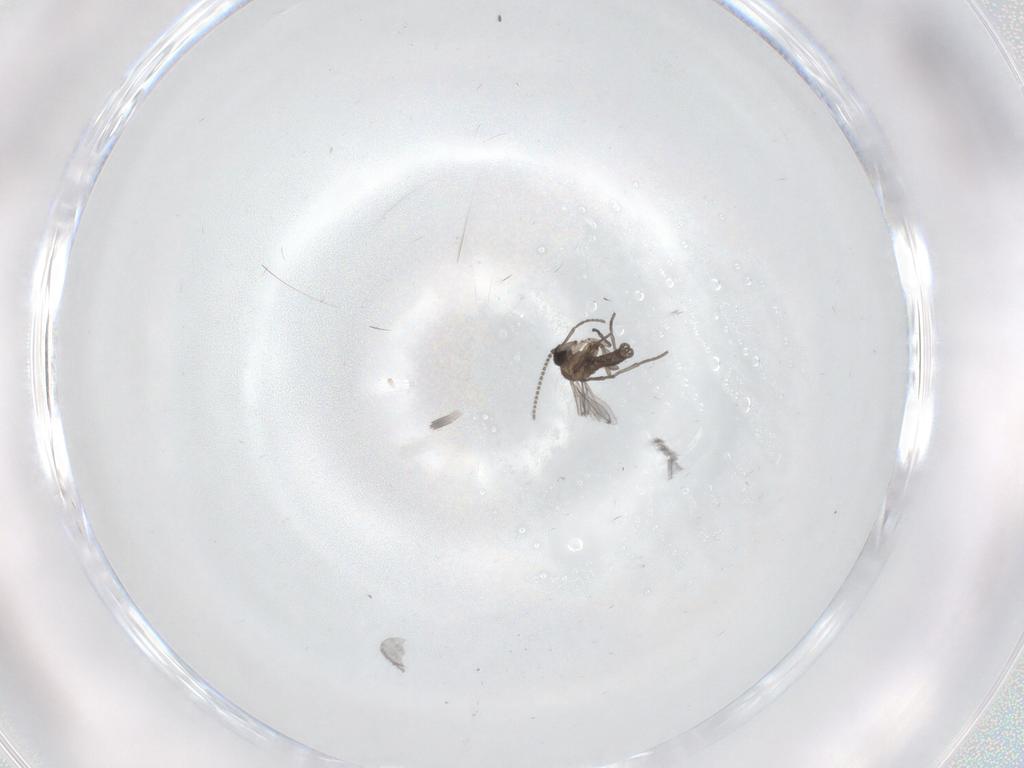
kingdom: Animalia
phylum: Arthropoda
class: Insecta
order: Diptera
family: Sciaridae
